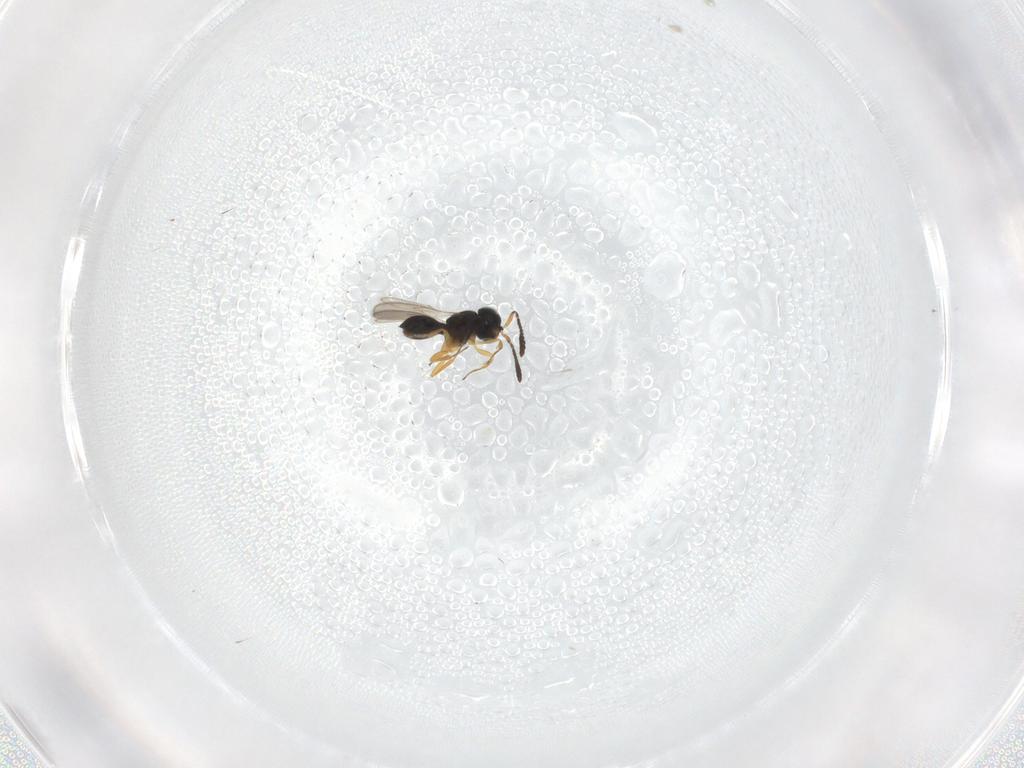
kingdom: Animalia
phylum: Arthropoda
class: Insecta
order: Hymenoptera
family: Scelionidae
